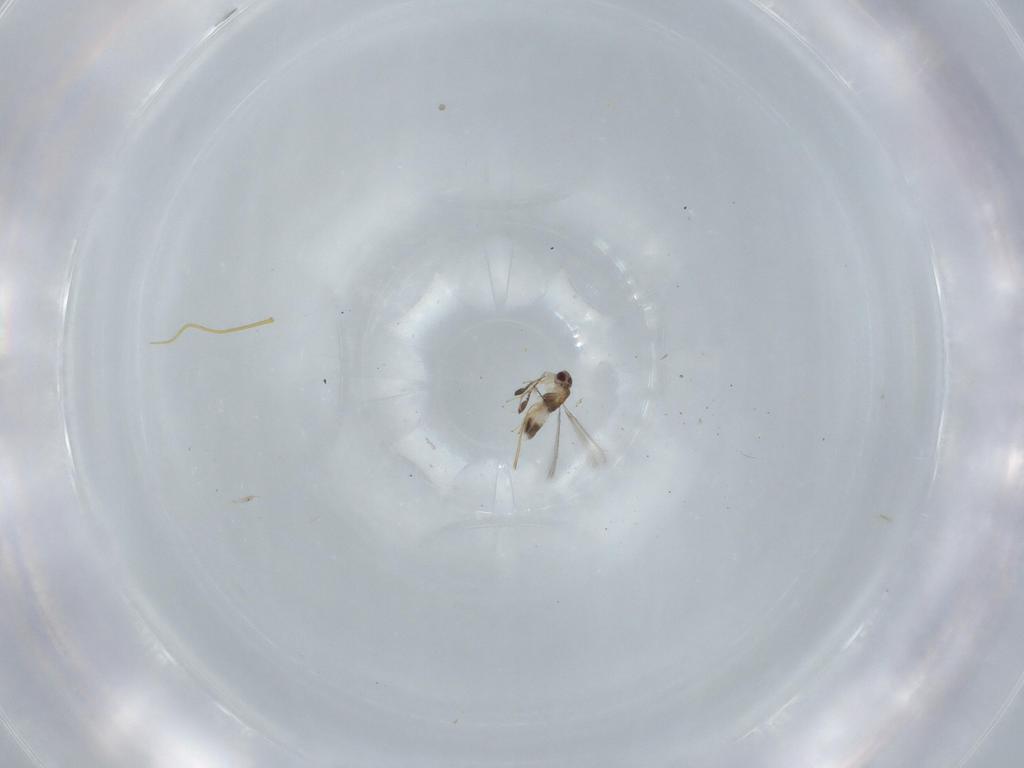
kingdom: Animalia
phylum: Arthropoda
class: Insecta
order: Hymenoptera
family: Mymaridae
